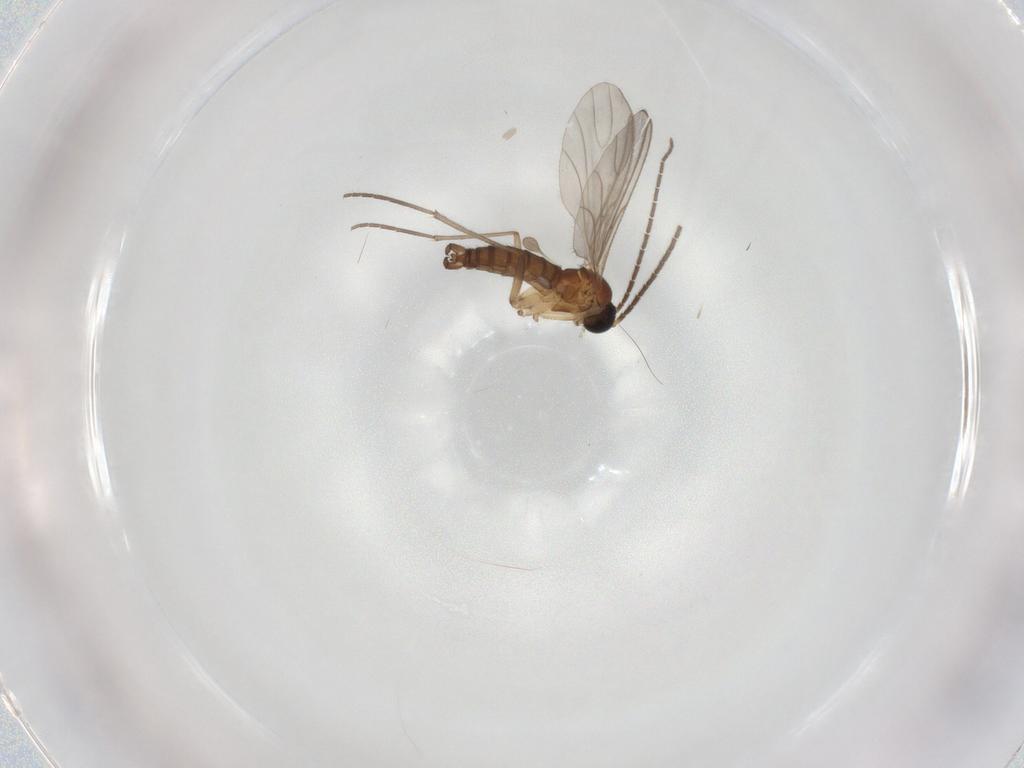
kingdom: Animalia
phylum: Arthropoda
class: Insecta
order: Diptera
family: Sciaridae
